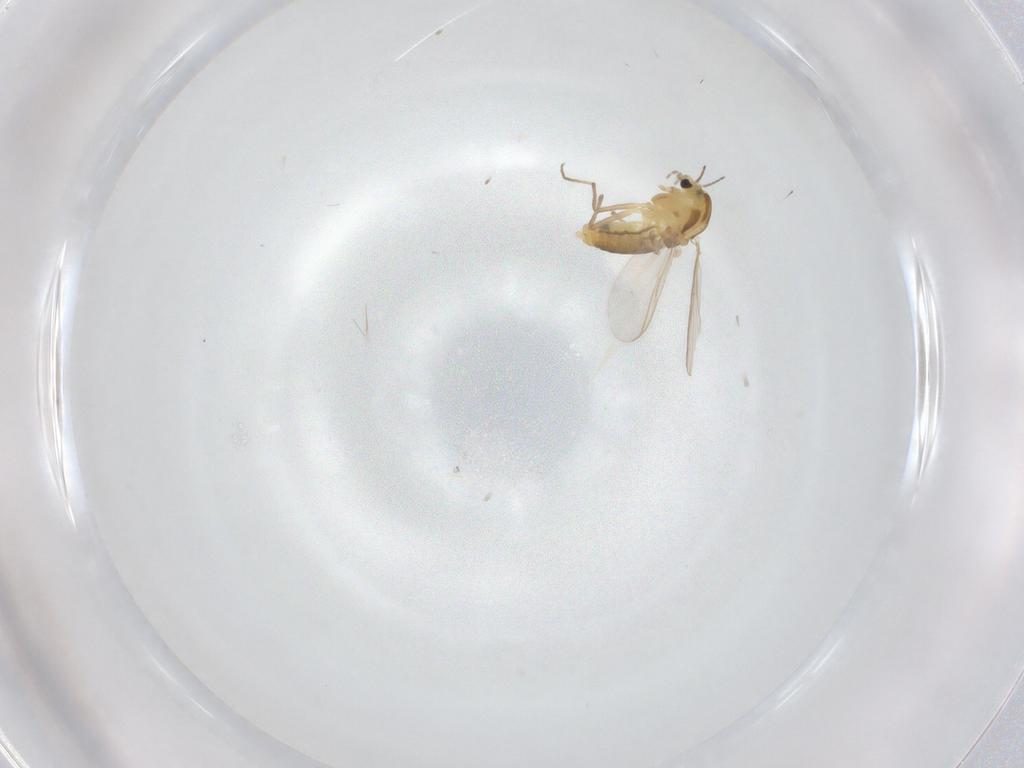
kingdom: Animalia
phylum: Arthropoda
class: Insecta
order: Diptera
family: Chironomidae
